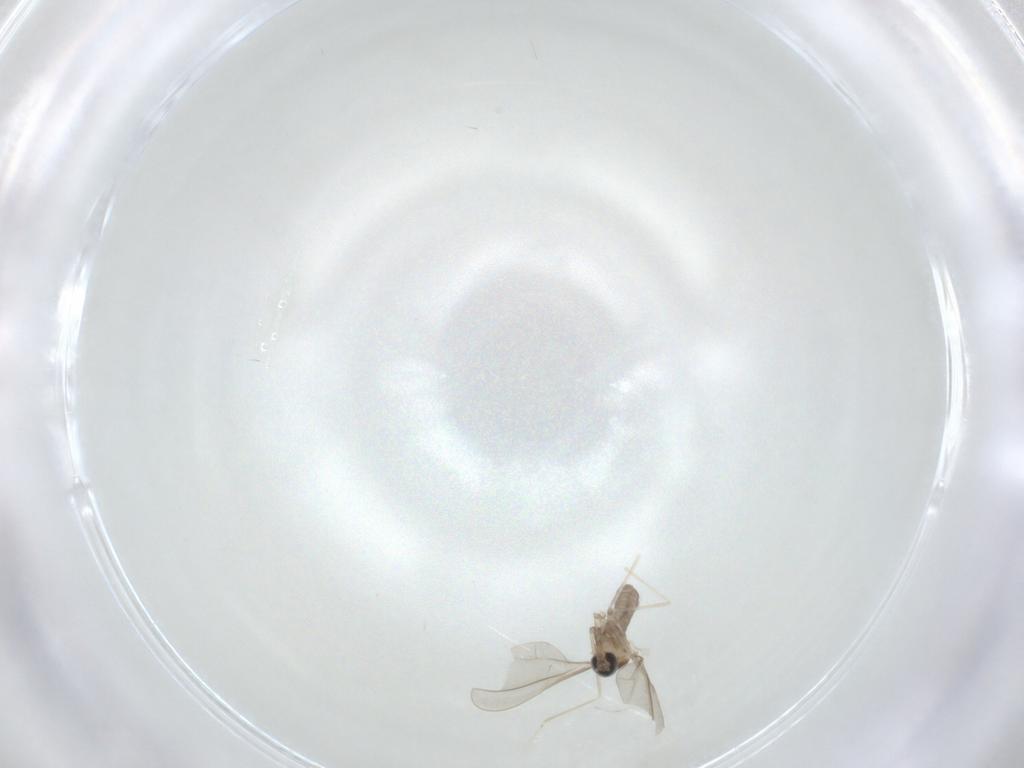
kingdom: Animalia
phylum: Arthropoda
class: Insecta
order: Diptera
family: Cecidomyiidae
